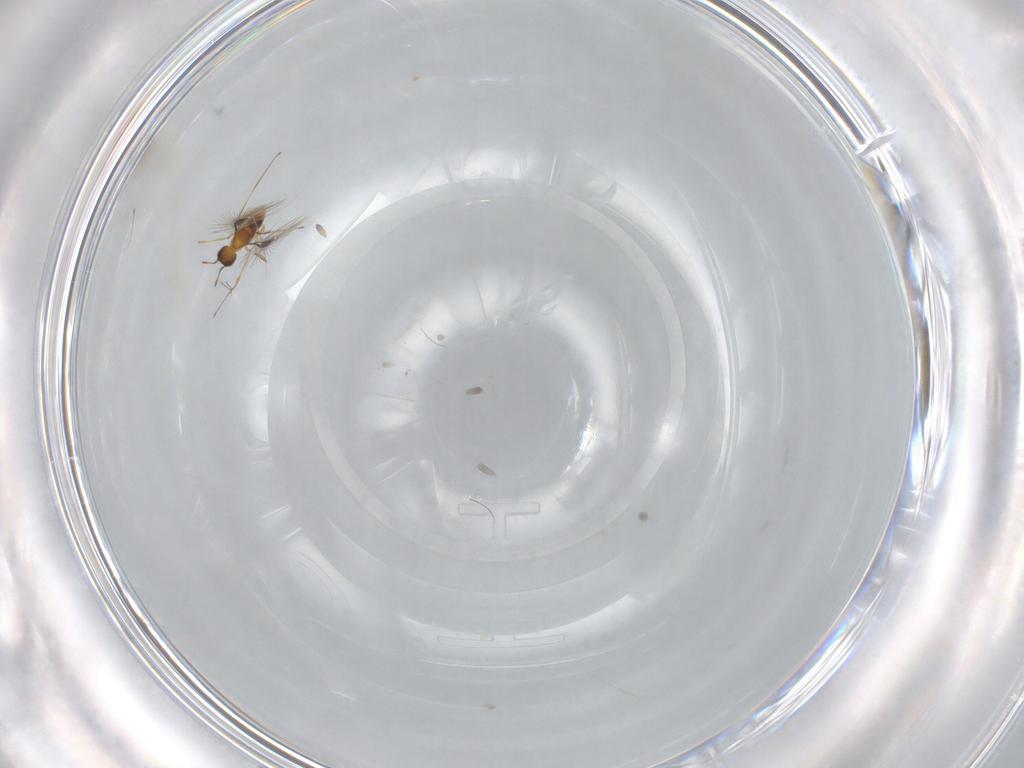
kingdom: Animalia
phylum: Arthropoda
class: Insecta
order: Hymenoptera
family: Mymaridae
